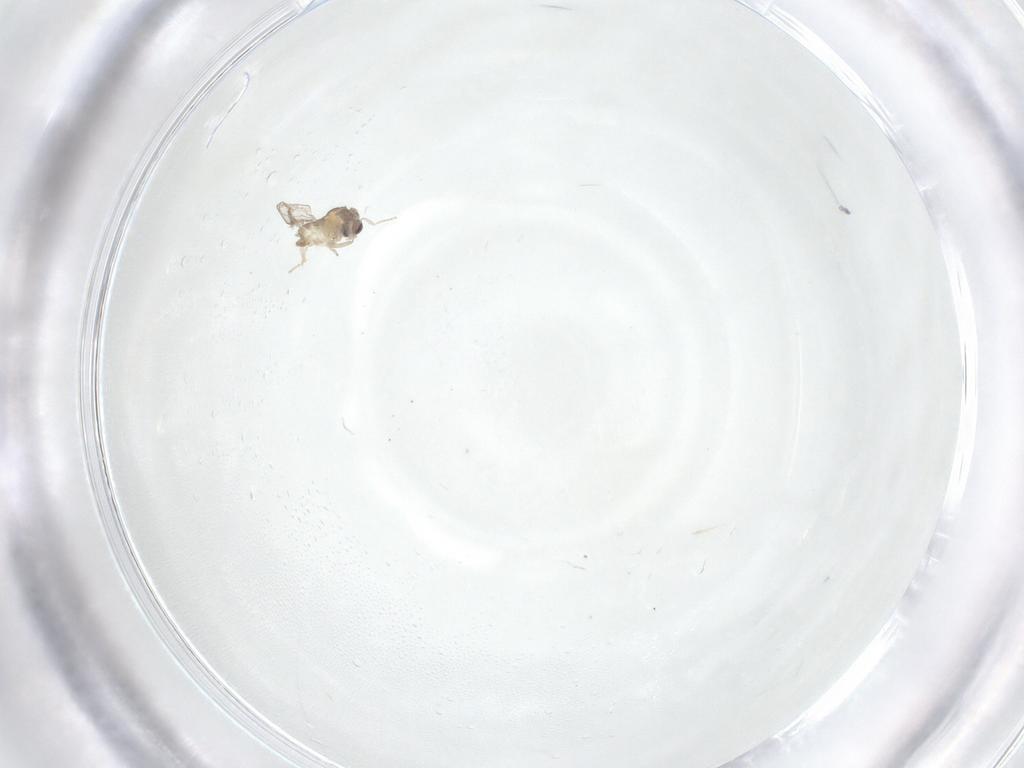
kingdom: Animalia
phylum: Arthropoda
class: Insecta
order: Diptera
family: Cecidomyiidae
